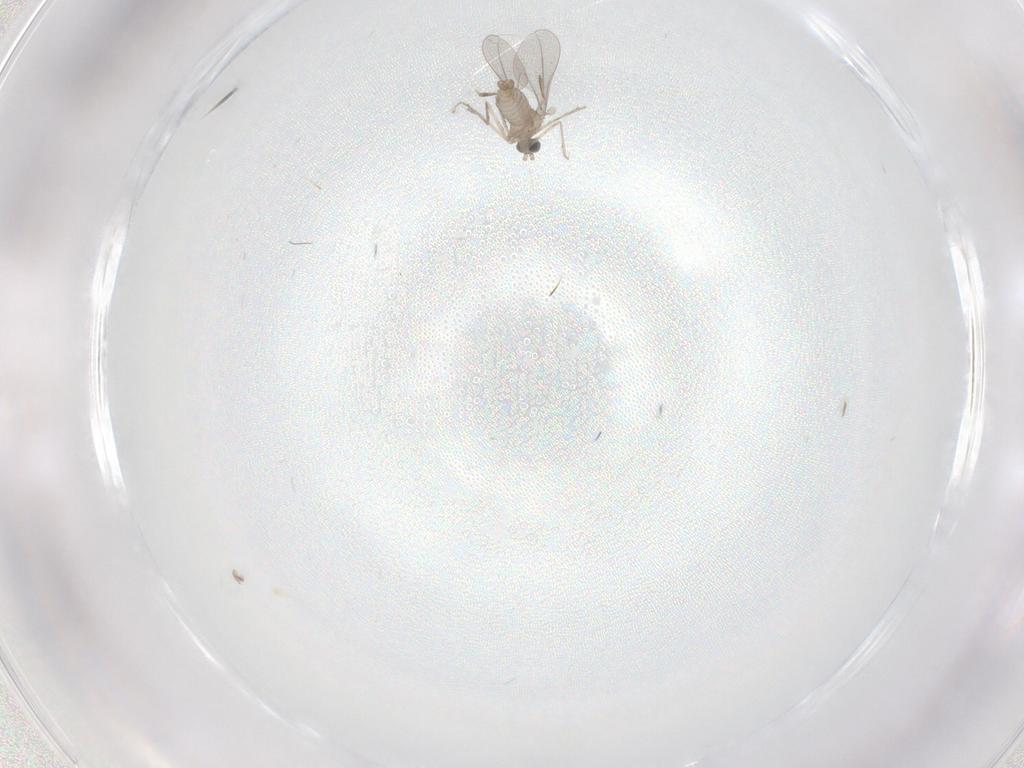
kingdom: Animalia
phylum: Arthropoda
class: Insecta
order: Diptera
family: Cecidomyiidae
